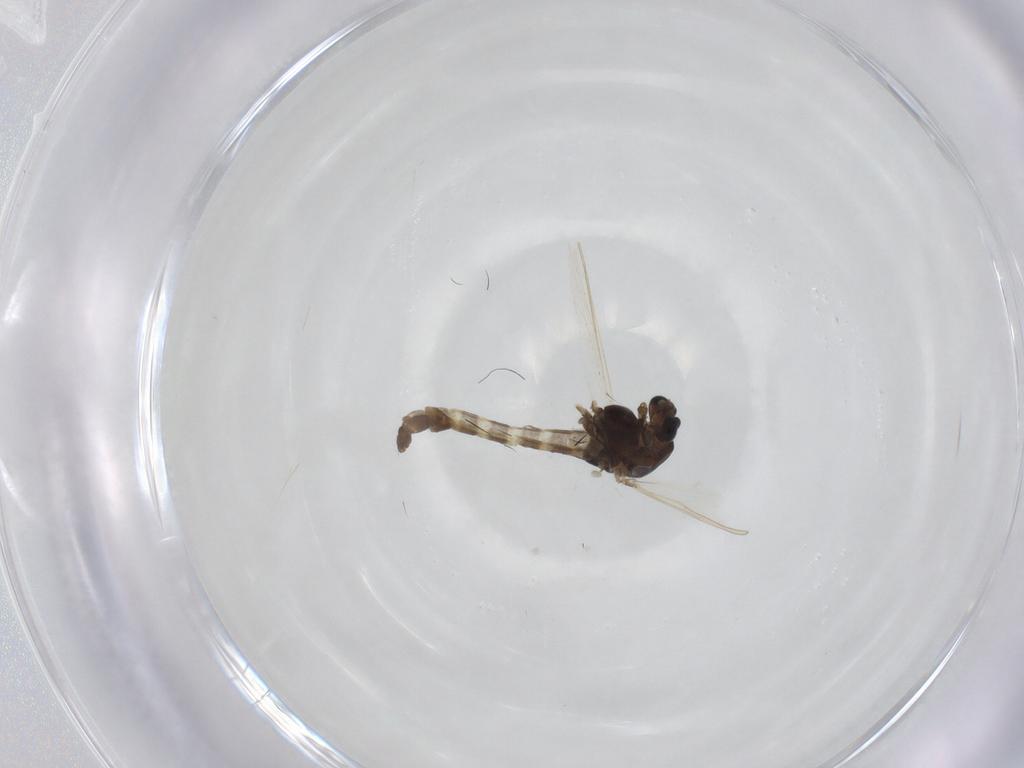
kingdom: Animalia
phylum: Arthropoda
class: Insecta
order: Diptera
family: Chironomidae
